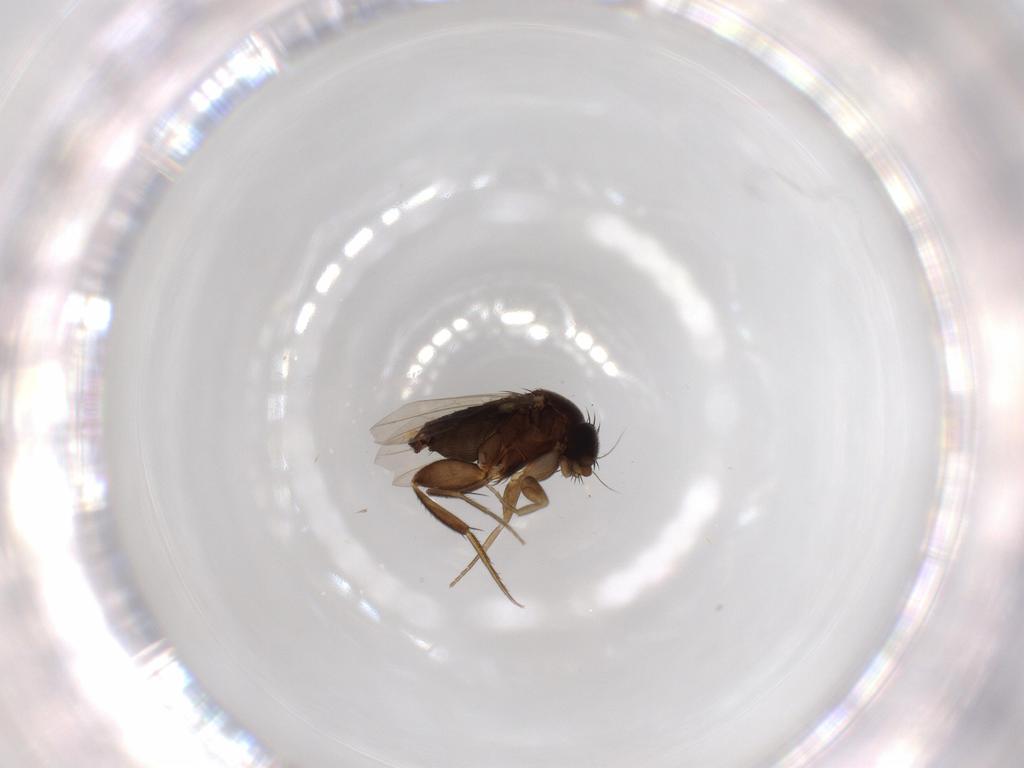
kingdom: Animalia
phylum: Arthropoda
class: Insecta
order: Diptera
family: Phoridae
